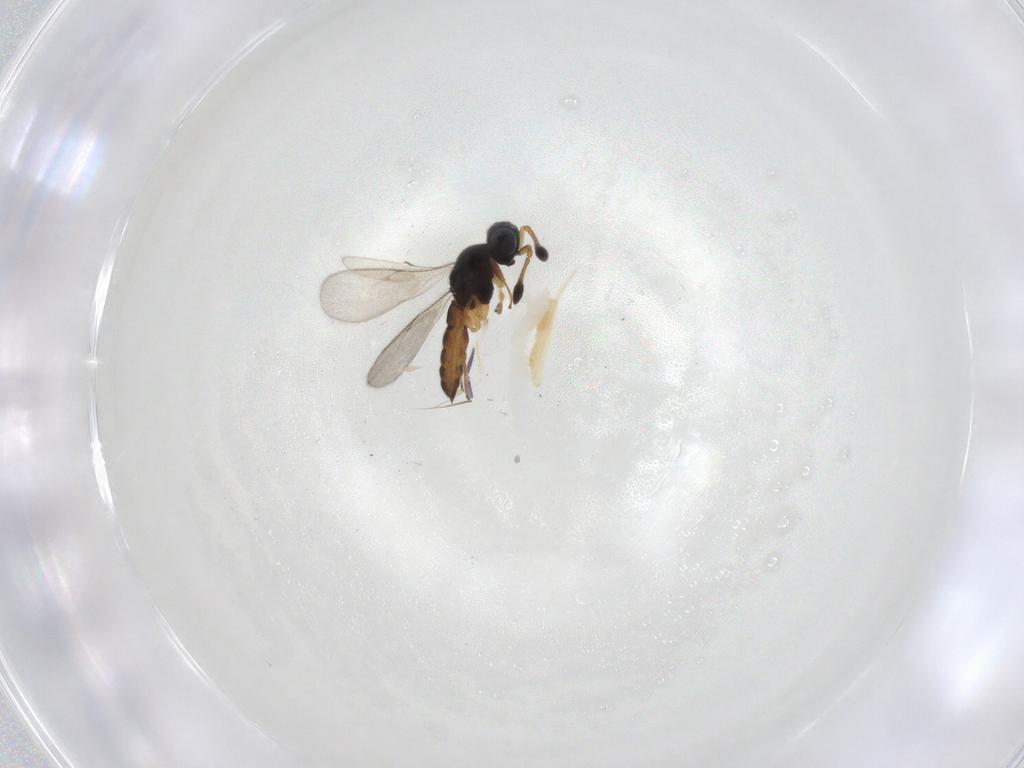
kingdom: Animalia
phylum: Arthropoda
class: Insecta
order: Hymenoptera
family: Scelionidae
